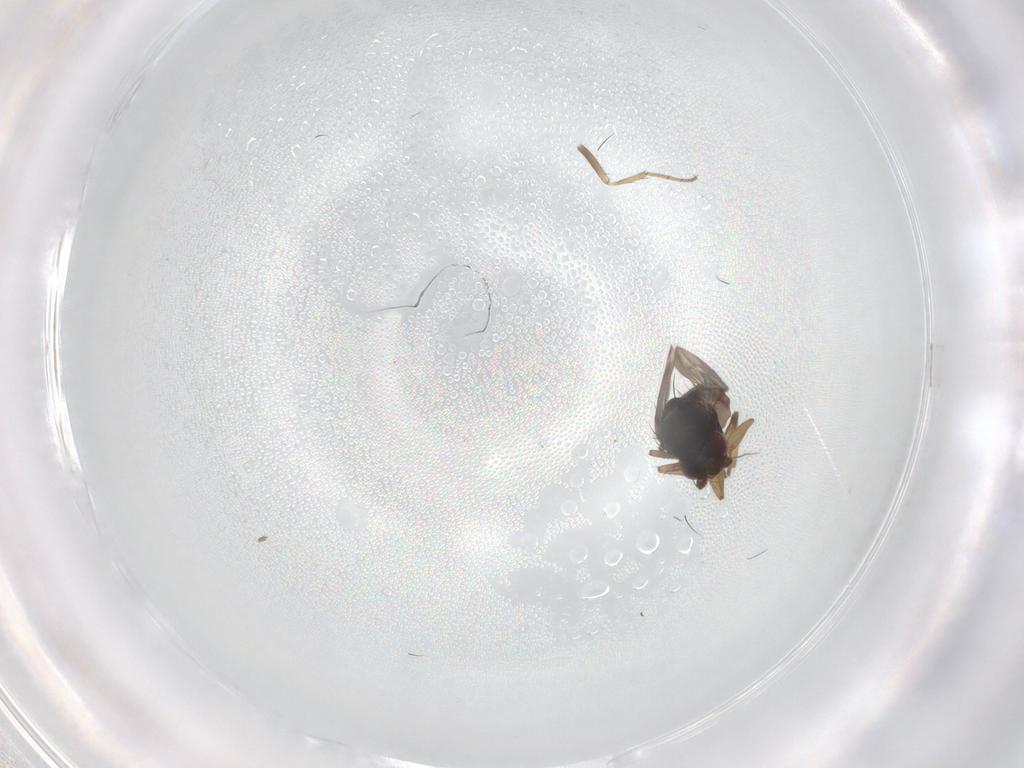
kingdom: Animalia
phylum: Arthropoda
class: Insecta
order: Diptera
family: Sphaeroceridae
